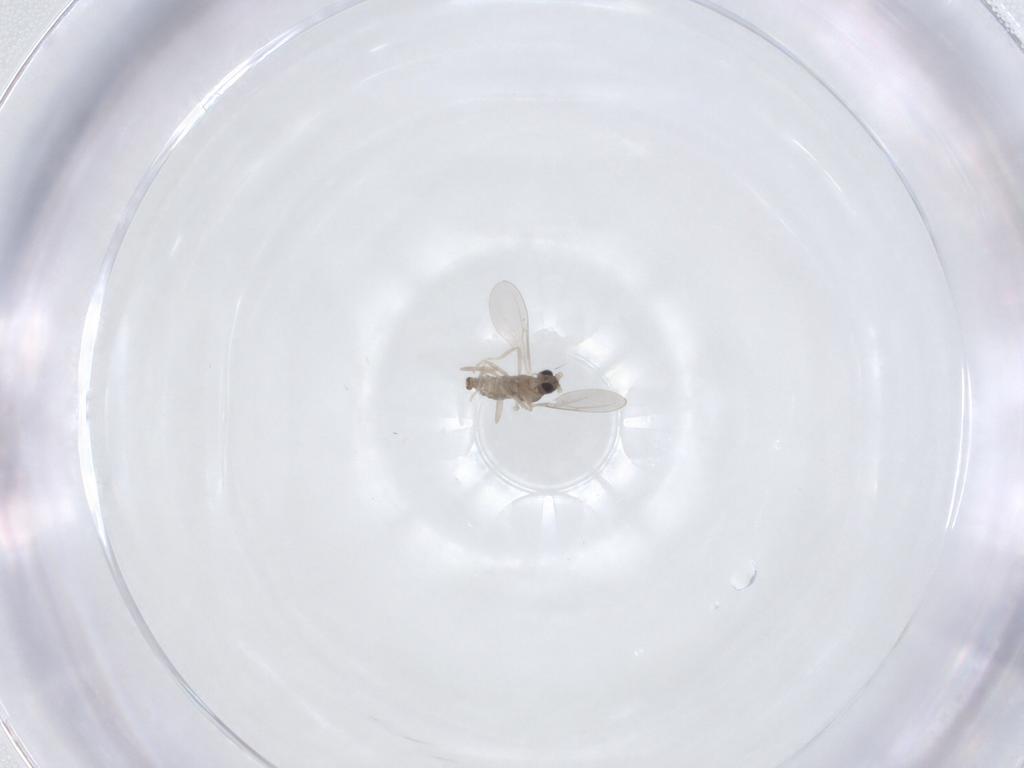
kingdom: Animalia
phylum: Arthropoda
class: Insecta
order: Diptera
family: Cecidomyiidae
